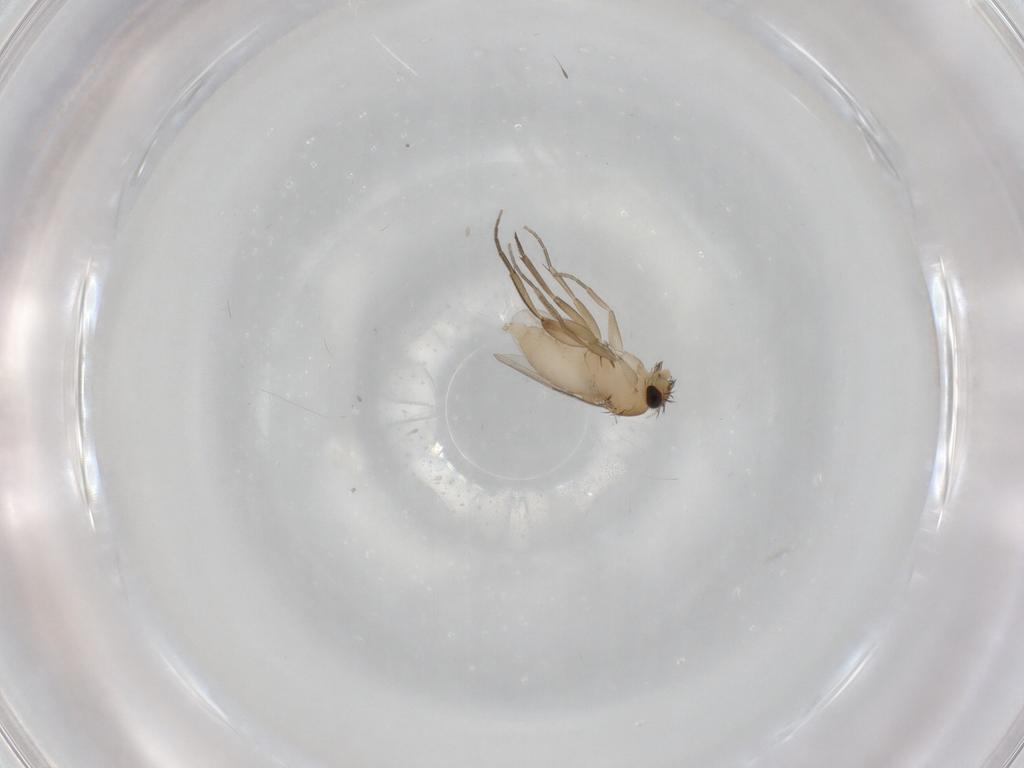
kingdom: Animalia
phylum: Arthropoda
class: Insecta
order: Diptera
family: Phoridae
